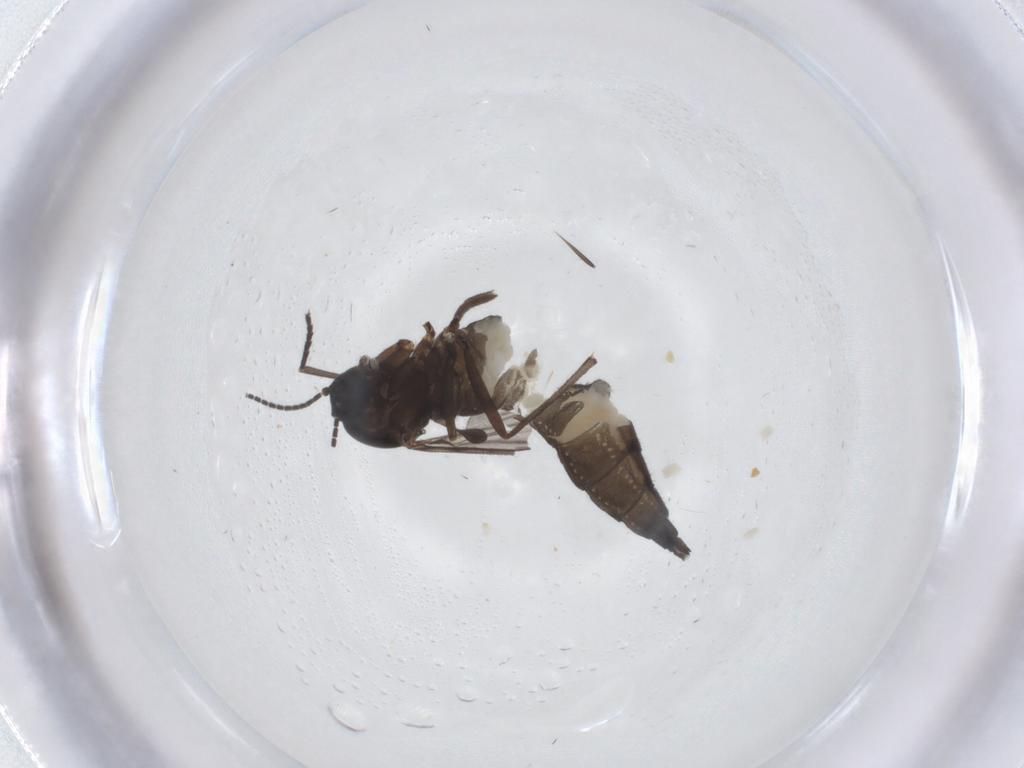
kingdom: Animalia
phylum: Arthropoda
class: Insecta
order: Diptera
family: Sciaridae
